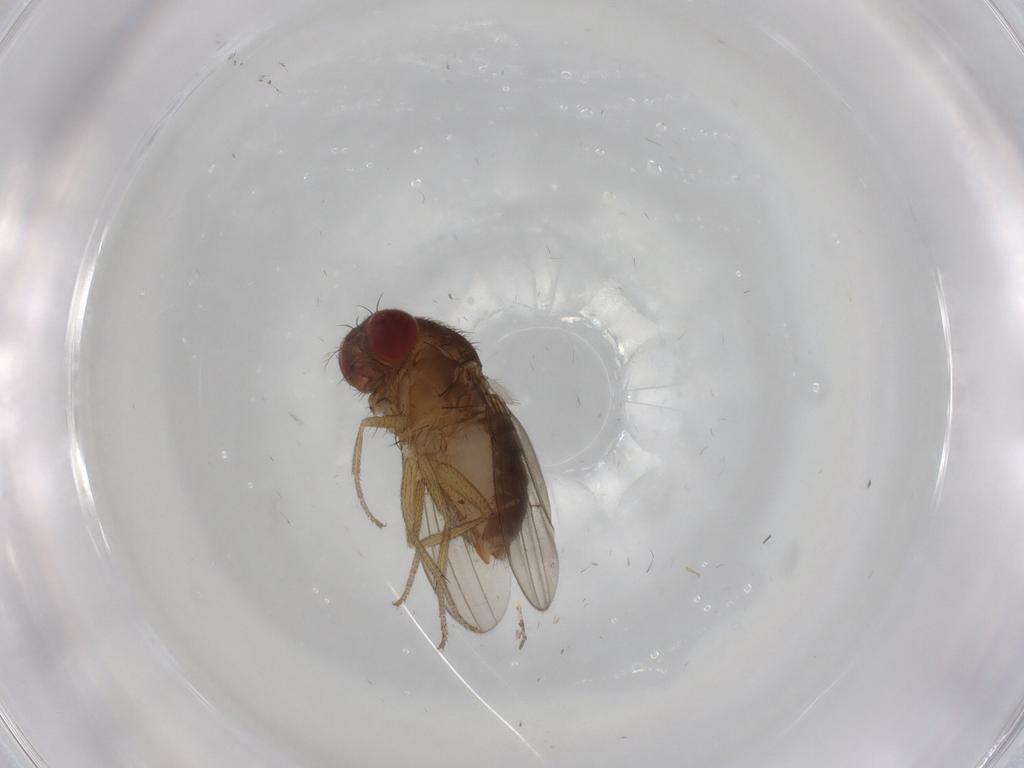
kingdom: Animalia
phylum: Arthropoda
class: Insecta
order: Diptera
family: Drosophilidae
